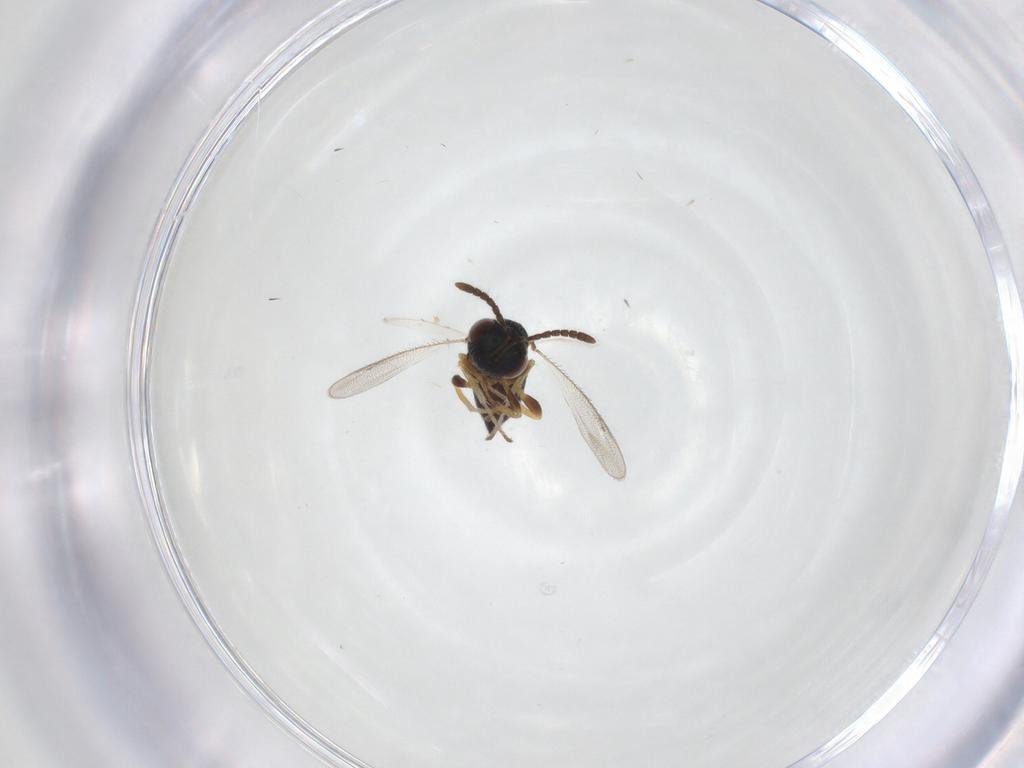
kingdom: Animalia
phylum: Arthropoda
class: Insecta
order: Hymenoptera
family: Pteromalidae
